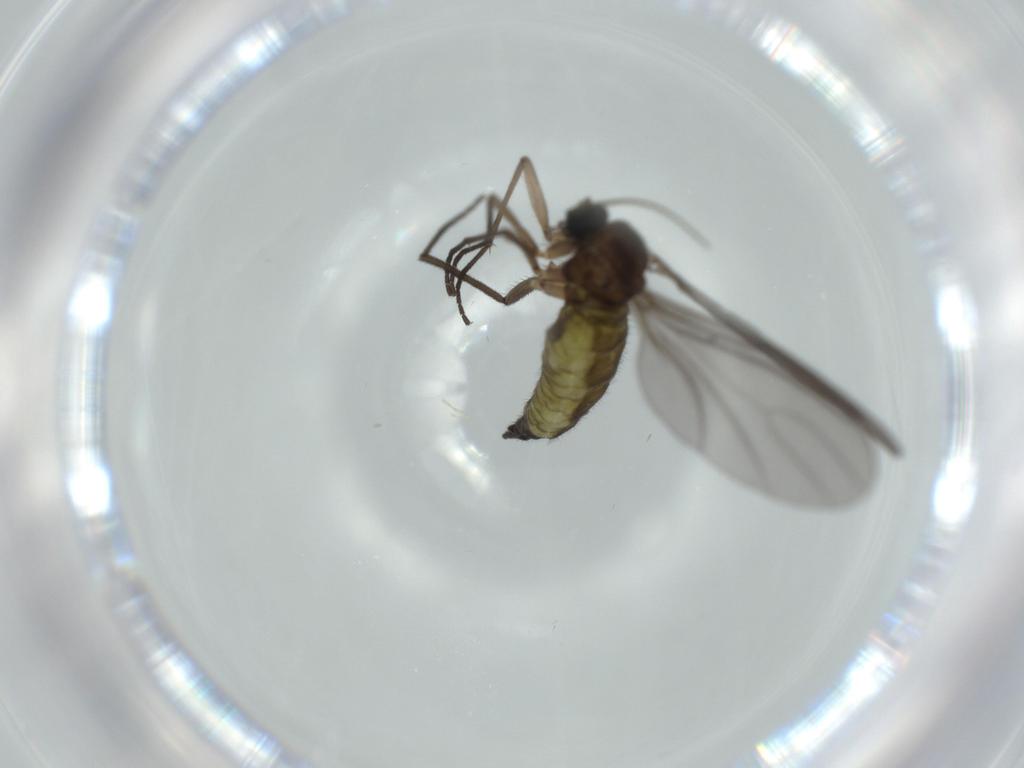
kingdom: Animalia
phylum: Arthropoda
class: Insecta
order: Diptera
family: Sciaridae
